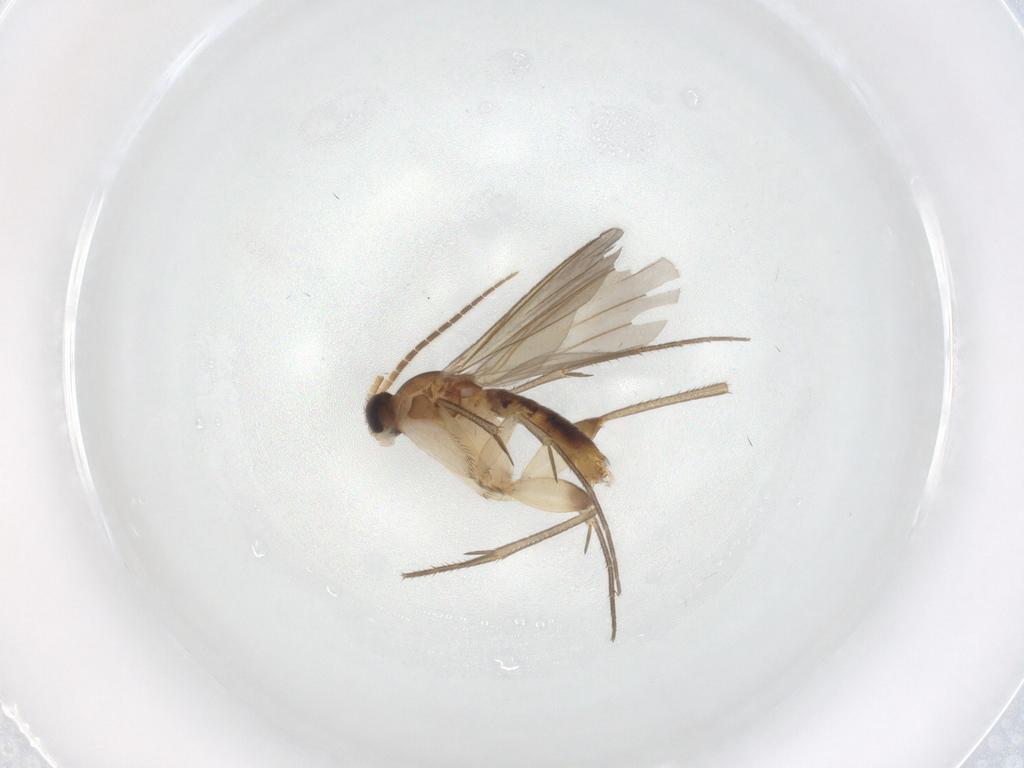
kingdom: Animalia
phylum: Arthropoda
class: Insecta
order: Diptera
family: Mycetophilidae
